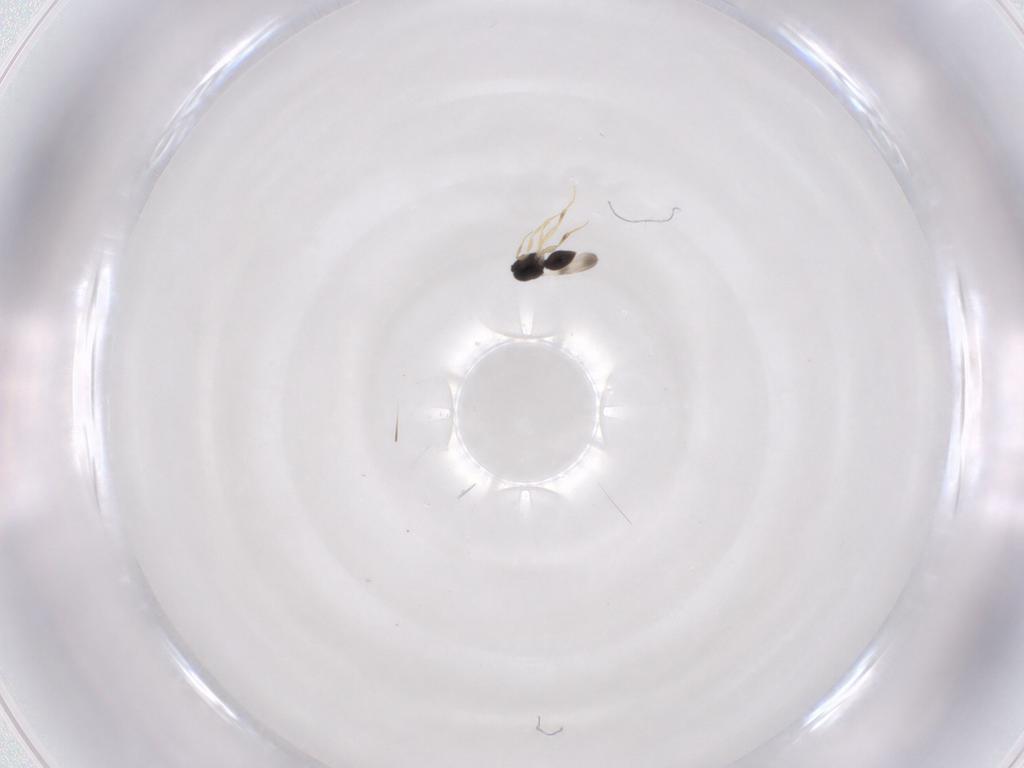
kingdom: Animalia
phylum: Arthropoda
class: Insecta
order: Hymenoptera
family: Ceraphronidae
